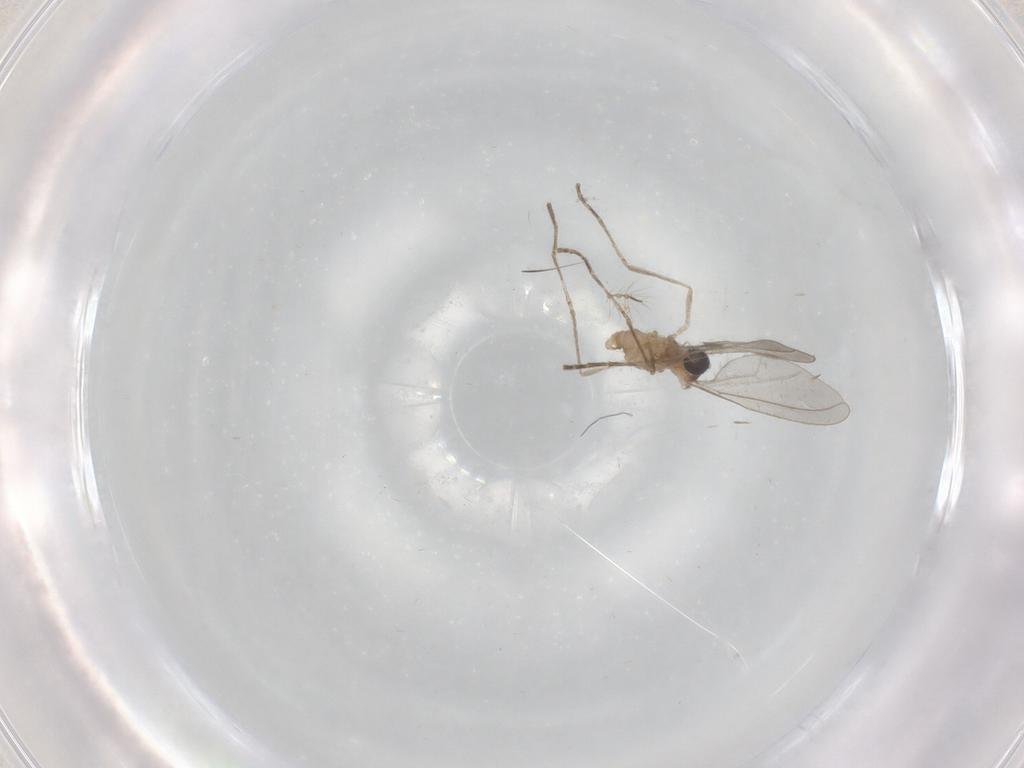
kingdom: Animalia
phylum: Arthropoda
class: Insecta
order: Diptera
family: Cecidomyiidae
